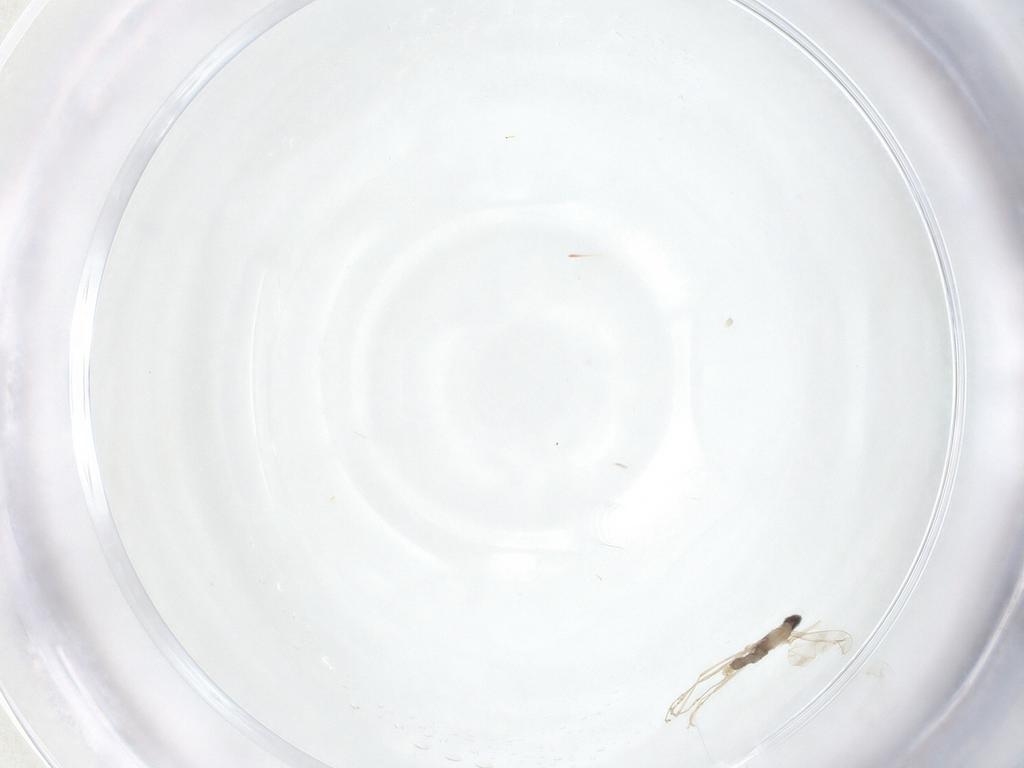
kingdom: Animalia
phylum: Arthropoda
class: Insecta
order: Diptera
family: Cecidomyiidae
